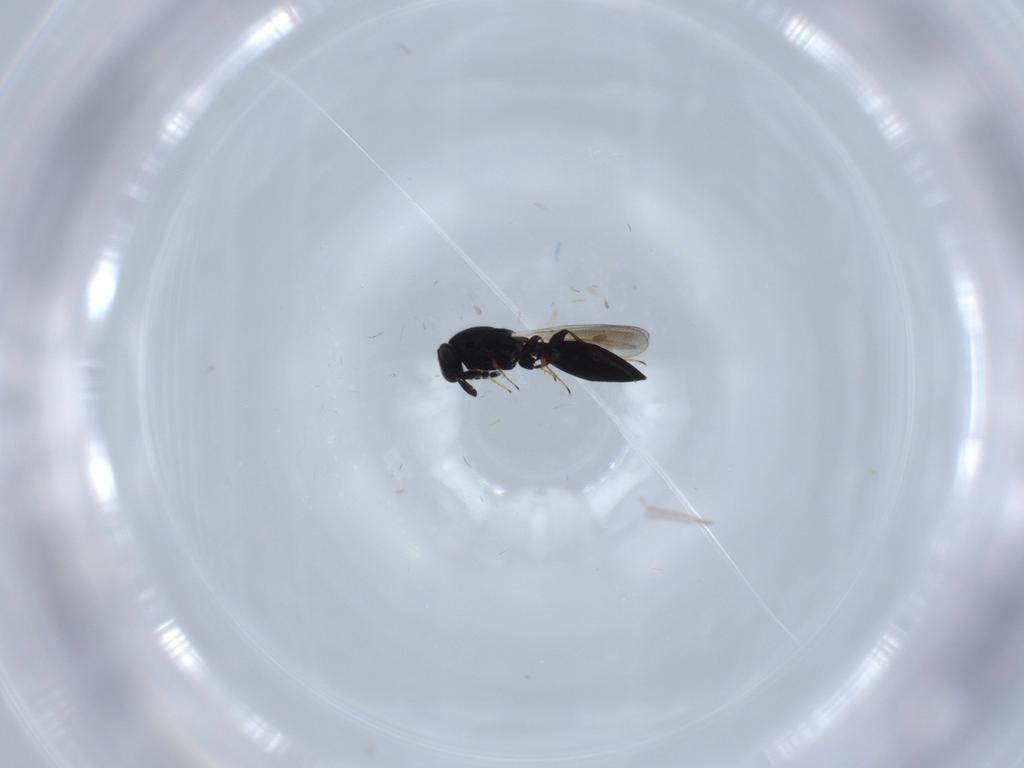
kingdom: Animalia
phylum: Arthropoda
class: Insecta
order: Hymenoptera
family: Platygastridae
